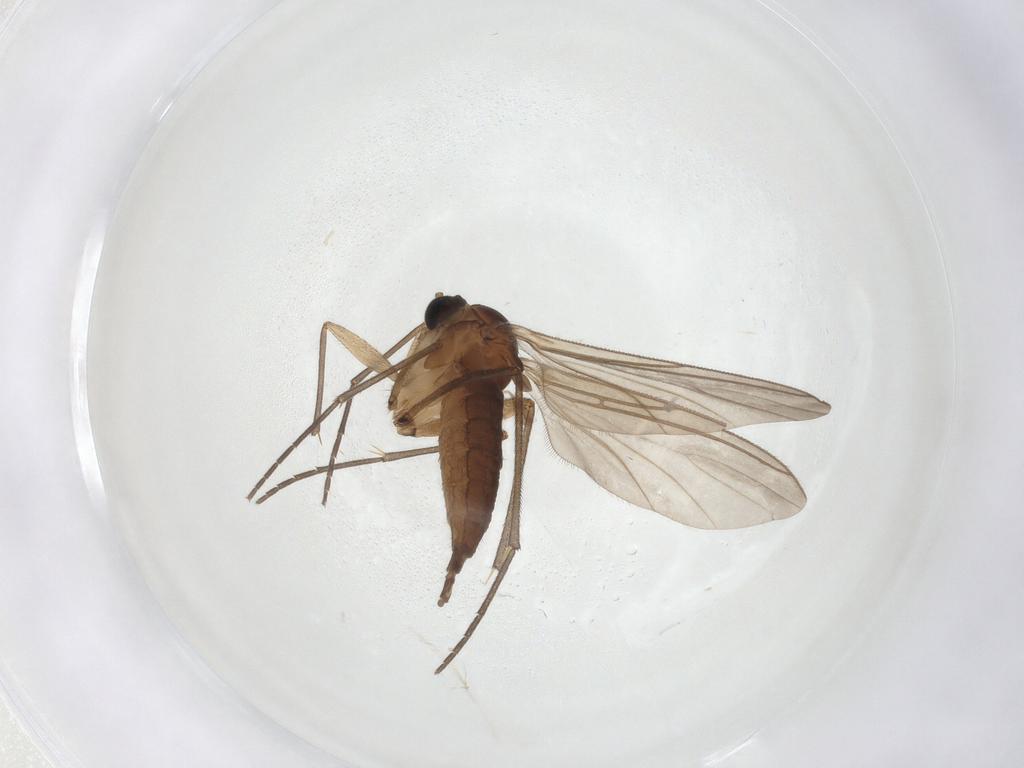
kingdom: Animalia
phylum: Arthropoda
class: Insecta
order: Diptera
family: Sciaridae
